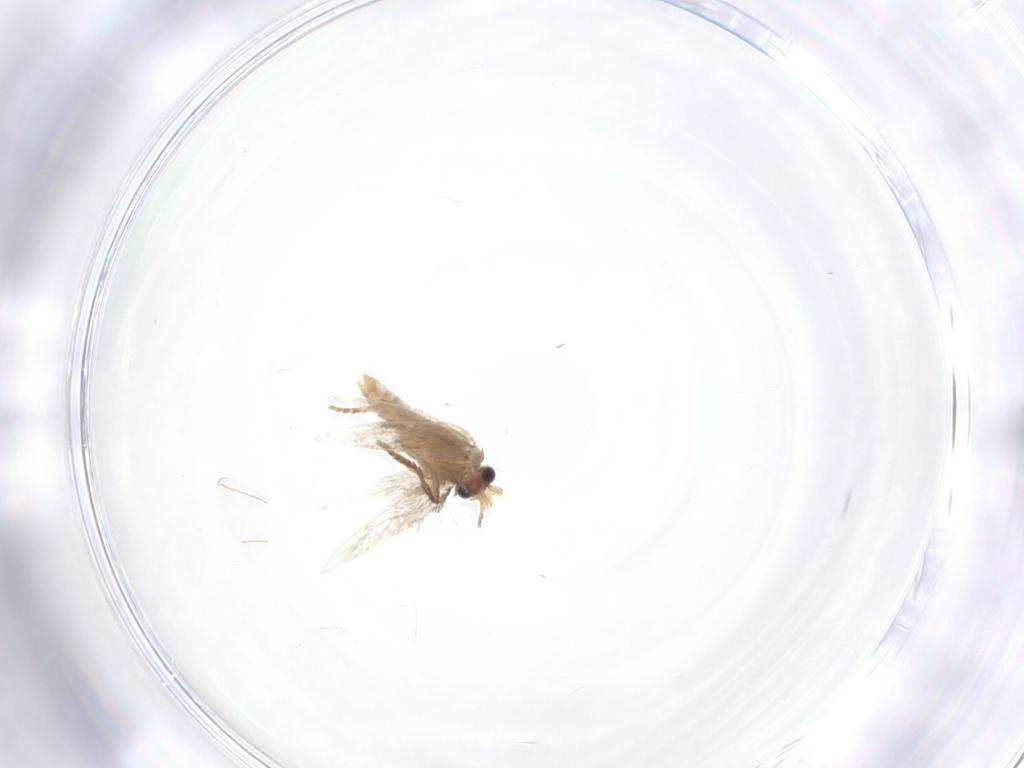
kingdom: Animalia
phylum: Arthropoda
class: Insecta
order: Lepidoptera
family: Nepticulidae
